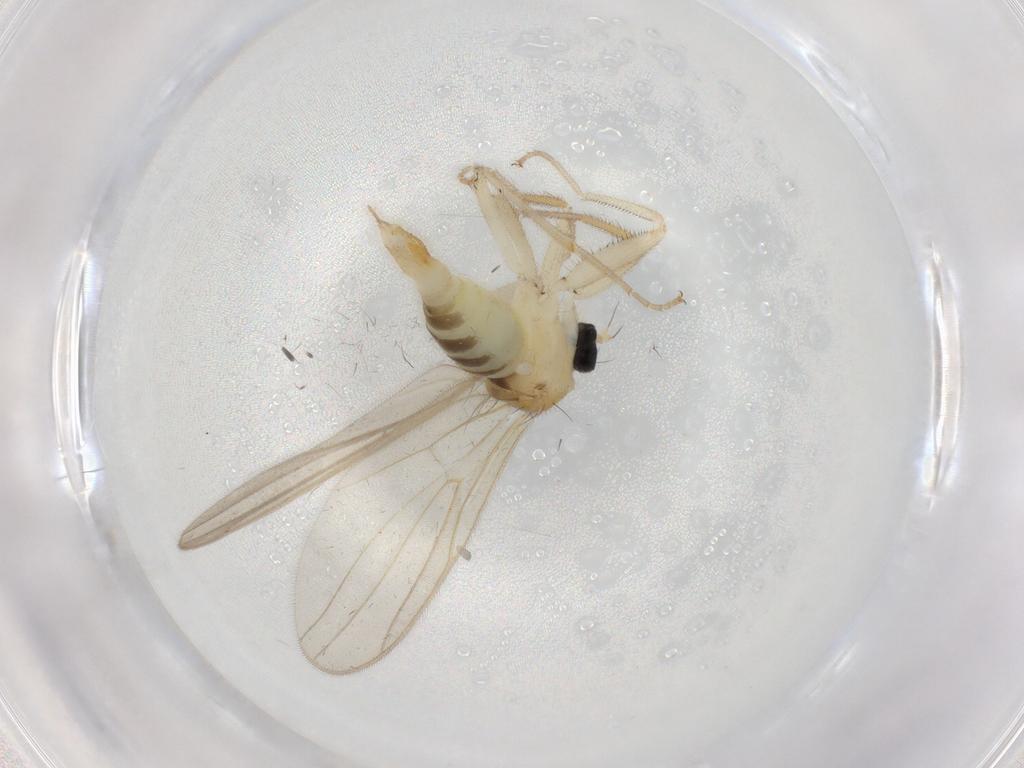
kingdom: Animalia
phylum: Arthropoda
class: Insecta
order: Diptera
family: Hybotidae
